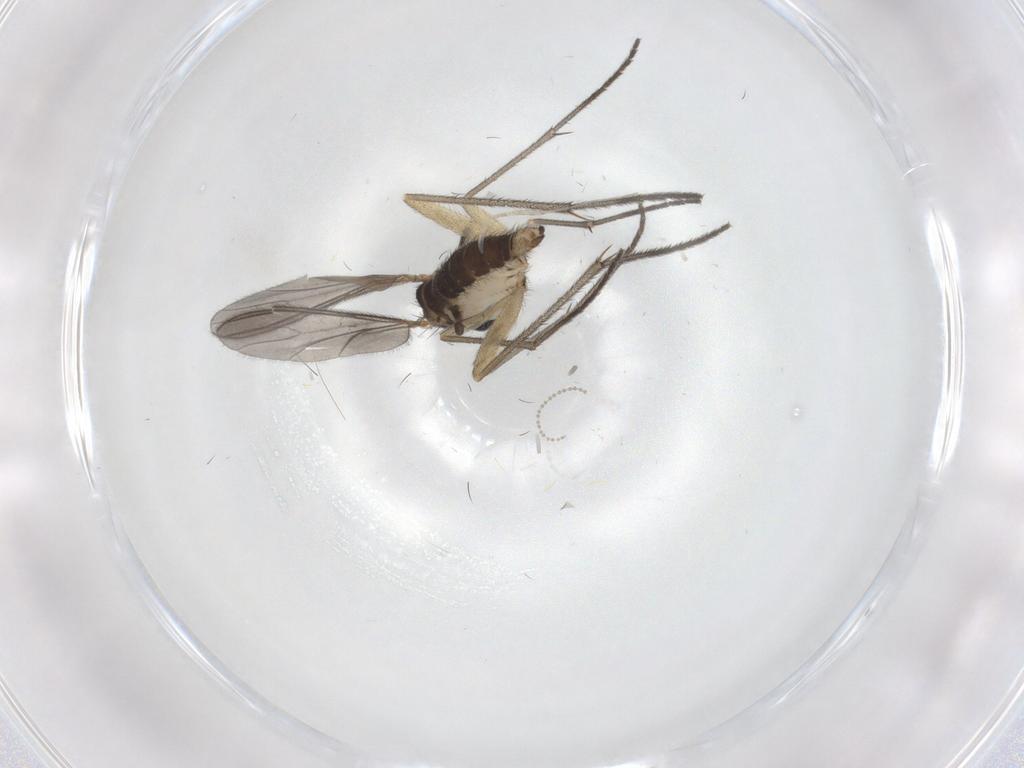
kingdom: Animalia
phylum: Arthropoda
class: Insecta
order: Diptera
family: Sciaridae
